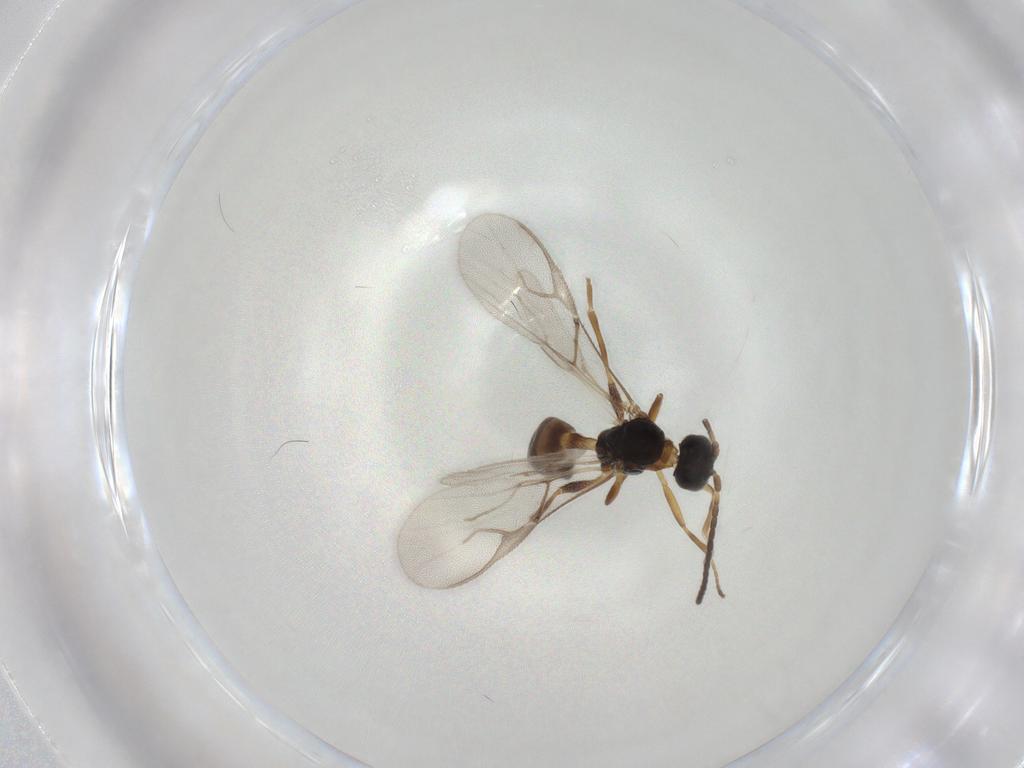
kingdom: Animalia
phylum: Arthropoda
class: Insecta
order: Hymenoptera
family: Braconidae
